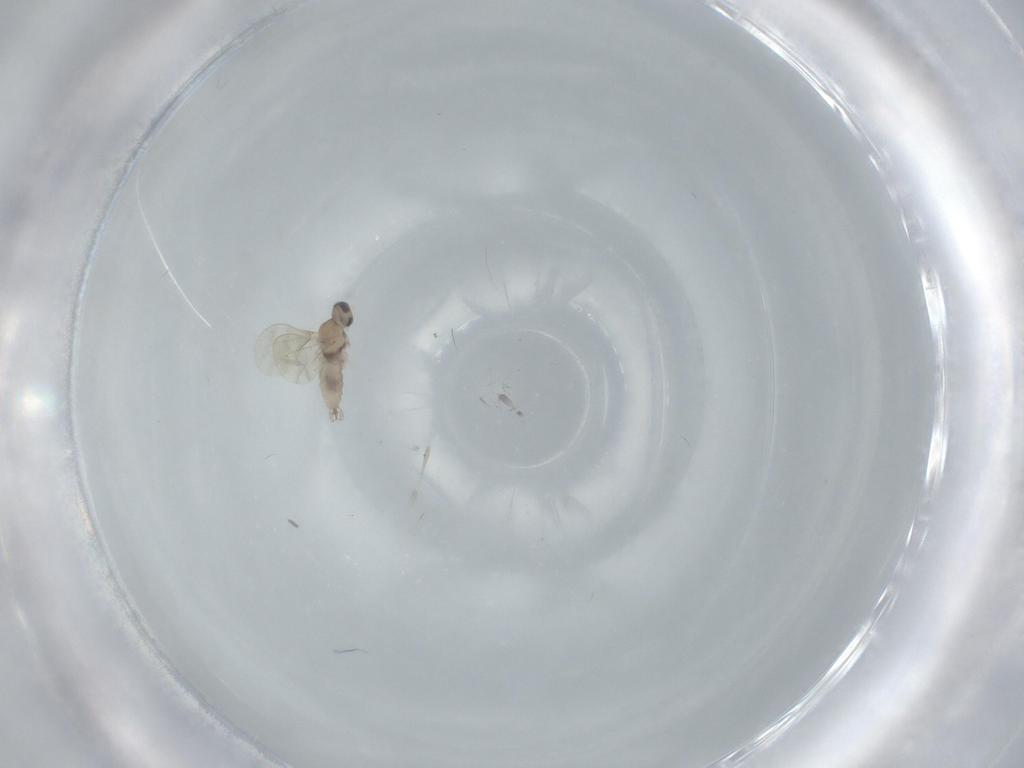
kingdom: Animalia
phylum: Arthropoda
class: Insecta
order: Diptera
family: Cecidomyiidae
